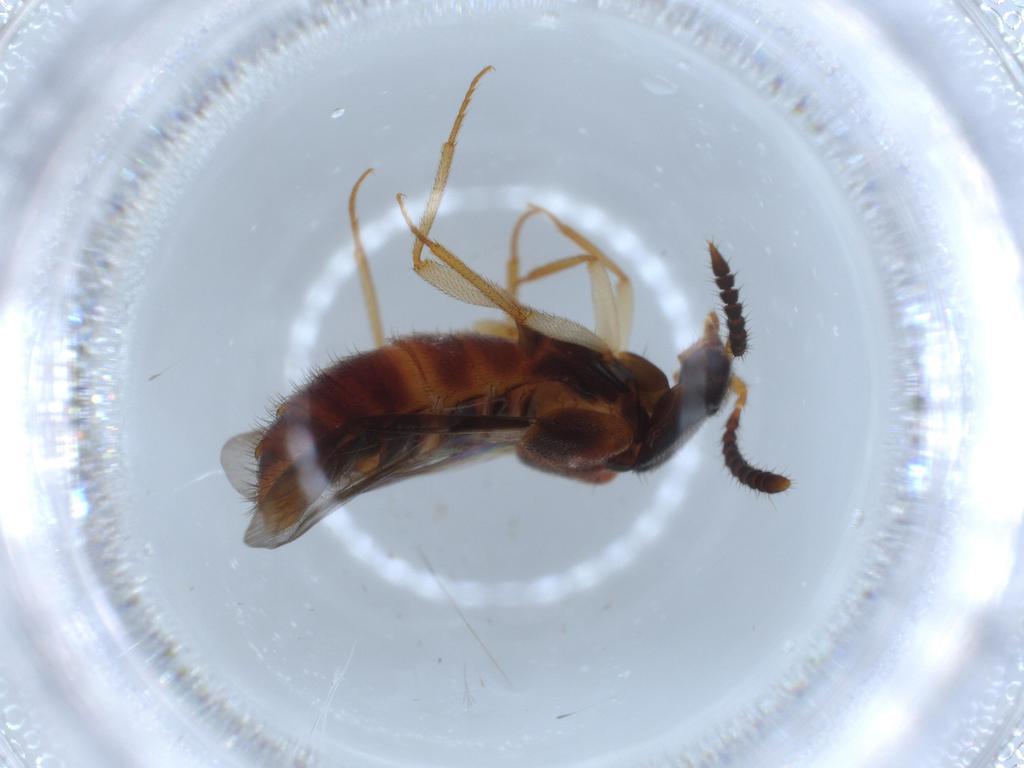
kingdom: Animalia
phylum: Arthropoda
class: Insecta
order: Coleoptera
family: Staphylinidae
